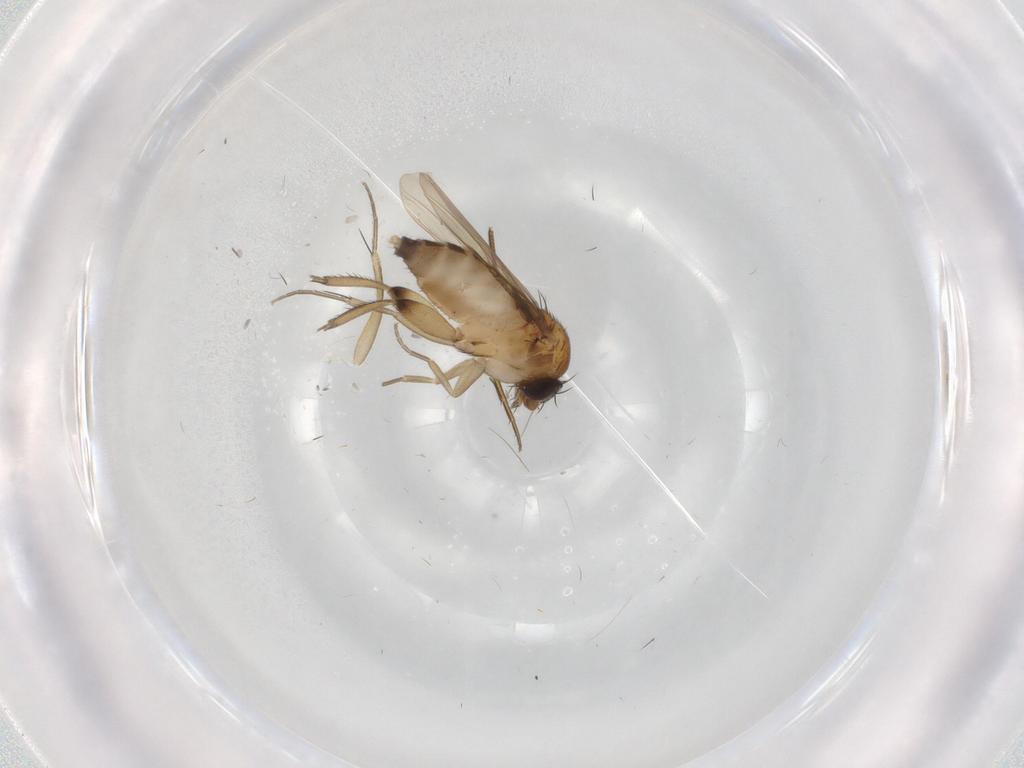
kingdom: Animalia
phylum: Arthropoda
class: Insecta
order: Diptera
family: Phoridae
